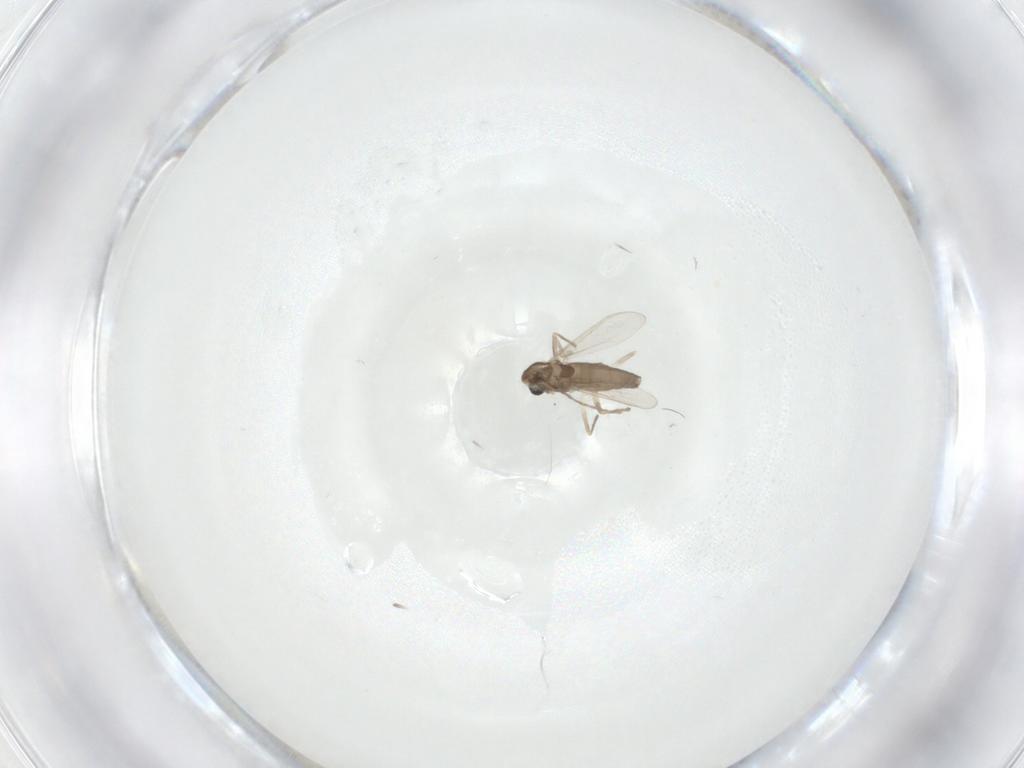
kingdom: Animalia
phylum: Arthropoda
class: Insecta
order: Diptera
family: Chironomidae
